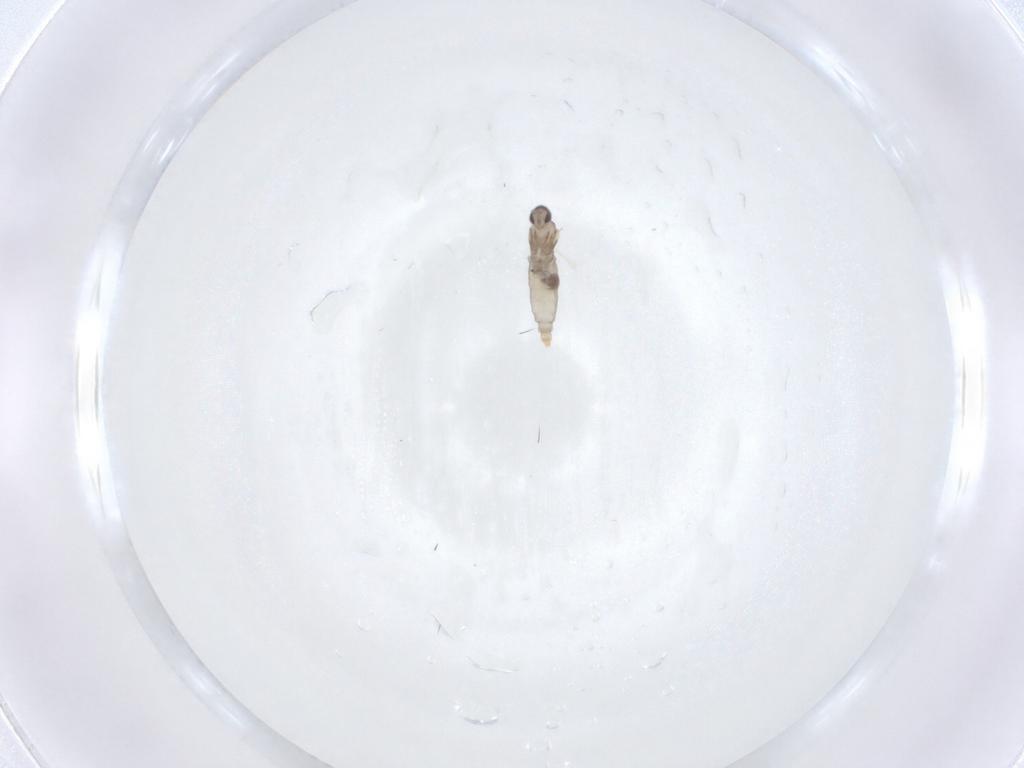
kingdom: Animalia
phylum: Arthropoda
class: Insecta
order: Diptera
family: Cecidomyiidae
